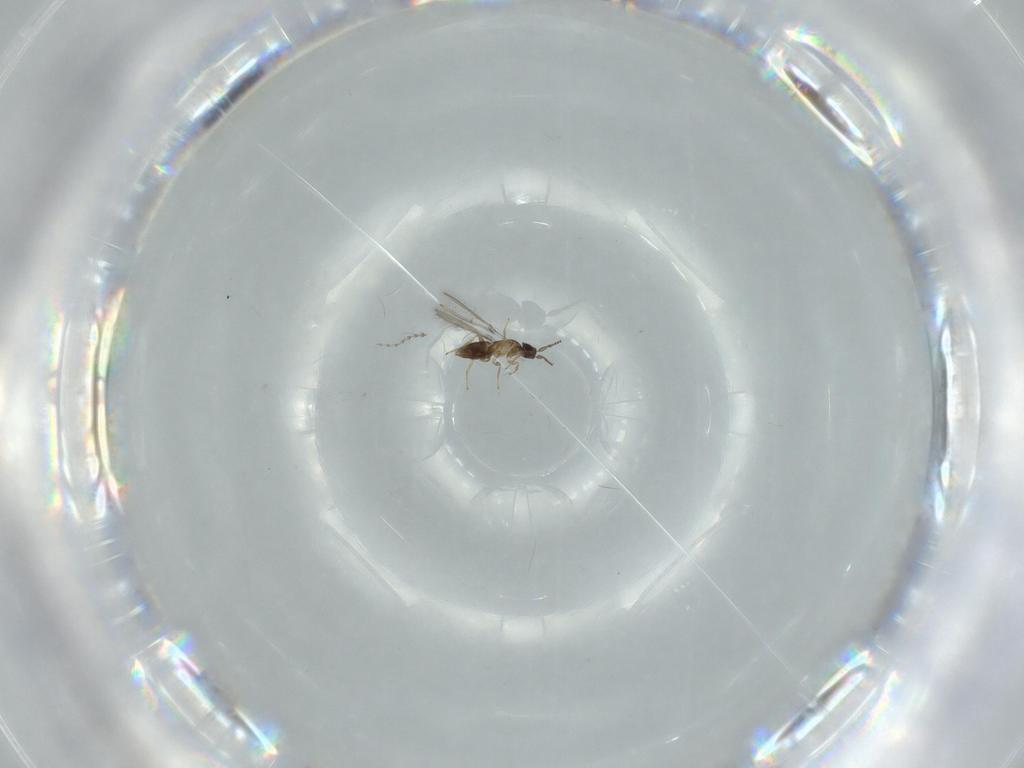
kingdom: Animalia
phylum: Arthropoda
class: Insecta
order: Hymenoptera
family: Mymaridae
